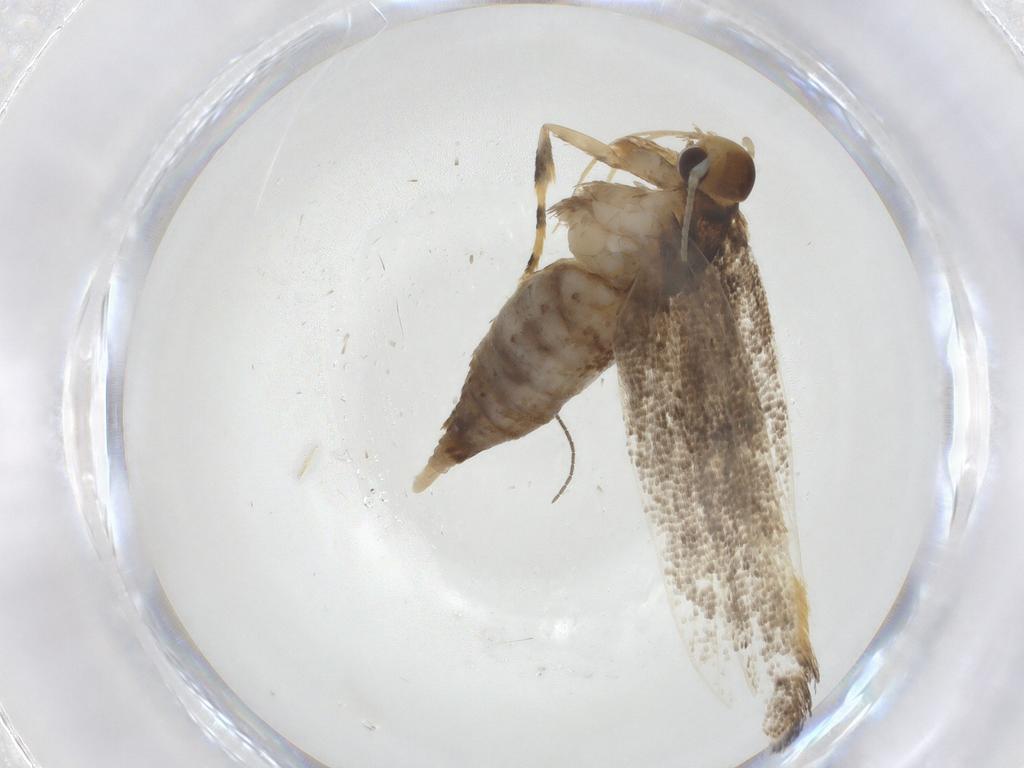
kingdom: Animalia
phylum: Arthropoda
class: Insecta
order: Lepidoptera
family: Lecithoceridae
